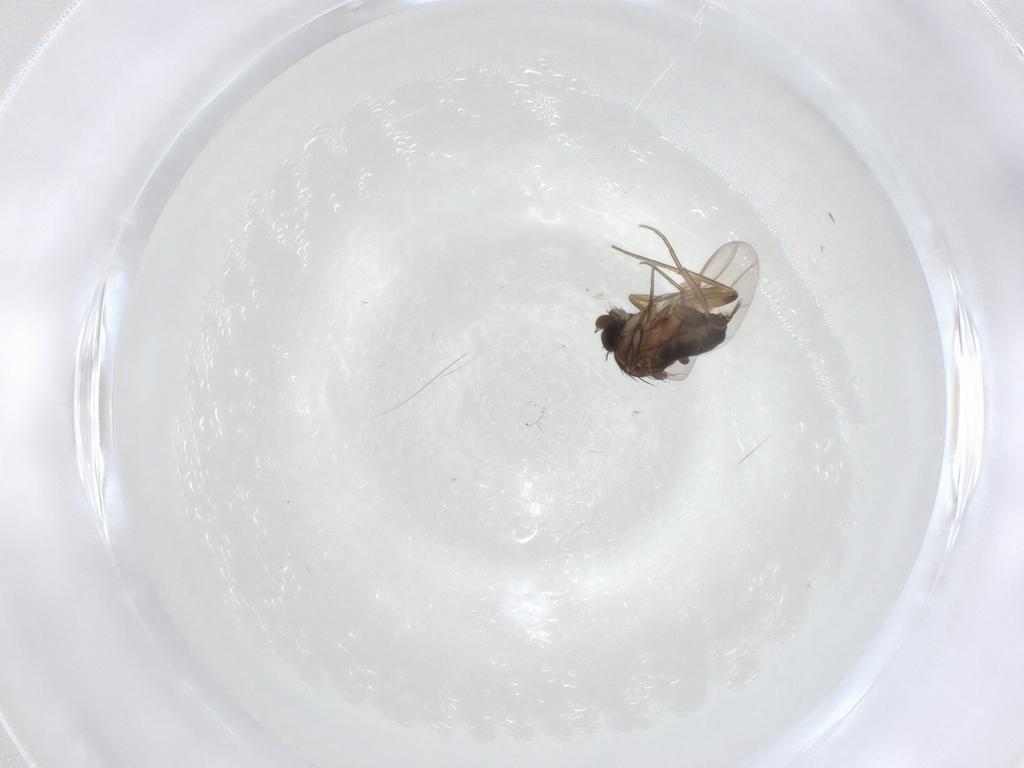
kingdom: Animalia
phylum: Arthropoda
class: Insecta
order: Diptera
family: Phoridae
